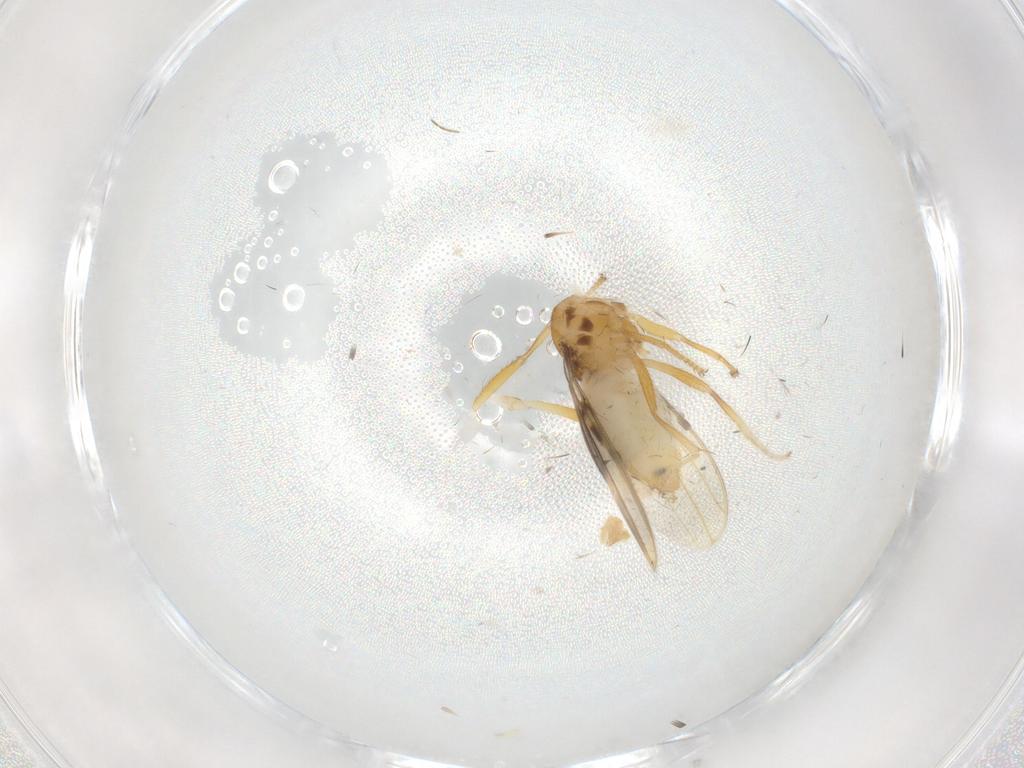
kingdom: Animalia
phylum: Arthropoda
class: Insecta
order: Diptera
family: Periscelididae
